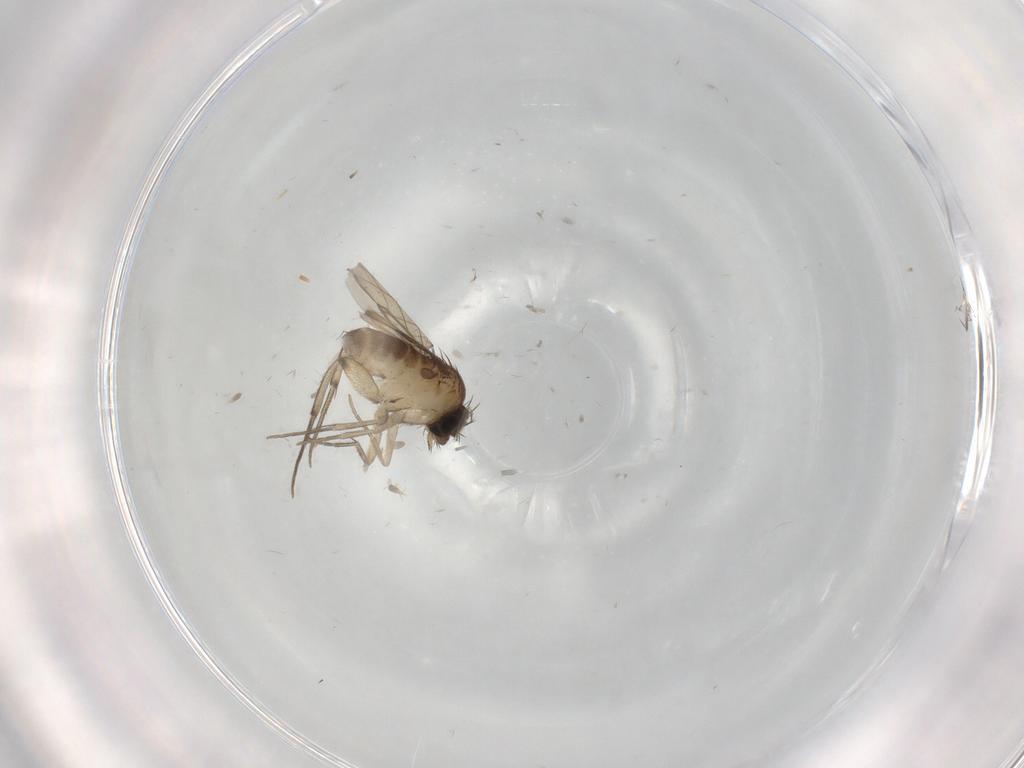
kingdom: Animalia
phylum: Arthropoda
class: Insecta
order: Diptera
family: Phoridae
